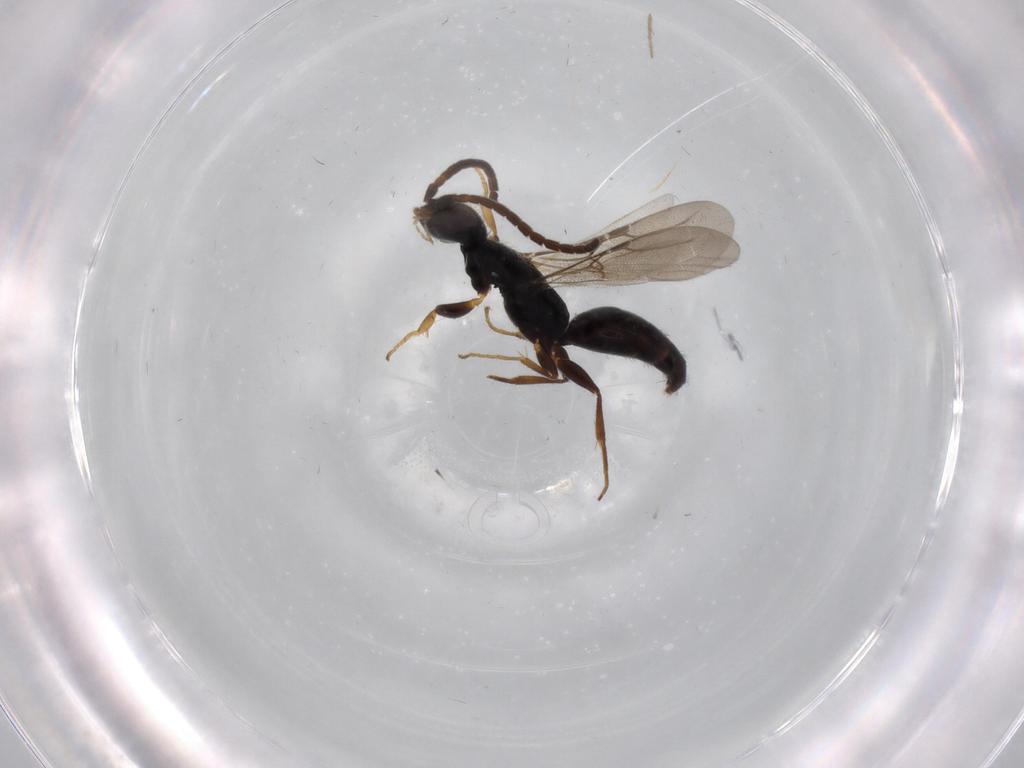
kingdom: Animalia
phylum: Arthropoda
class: Insecta
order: Hymenoptera
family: Bethylidae
